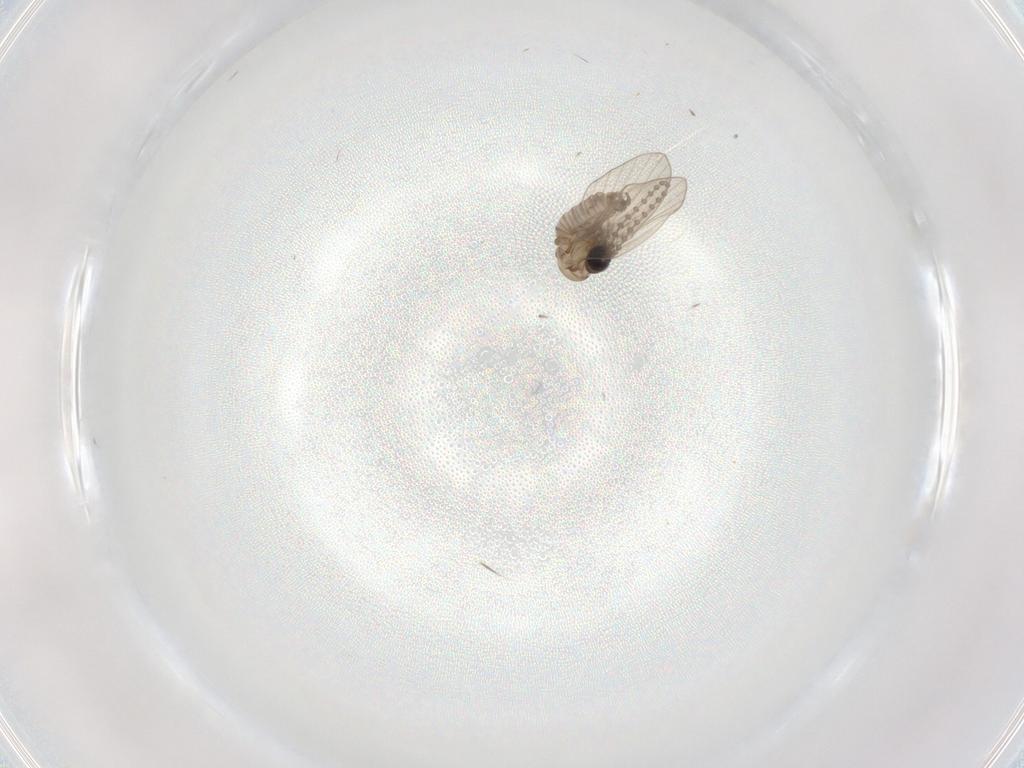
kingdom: Animalia
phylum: Arthropoda
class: Insecta
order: Diptera
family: Psychodidae
